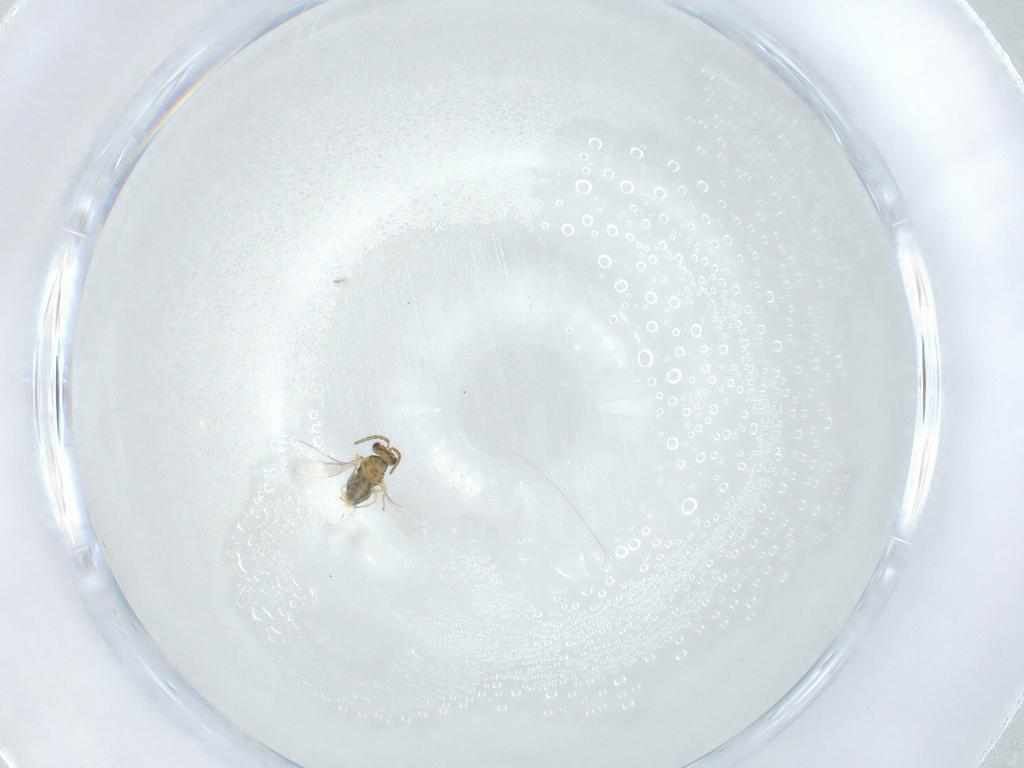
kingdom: Animalia
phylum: Arthropoda
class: Insecta
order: Hymenoptera
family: Aphelinidae
